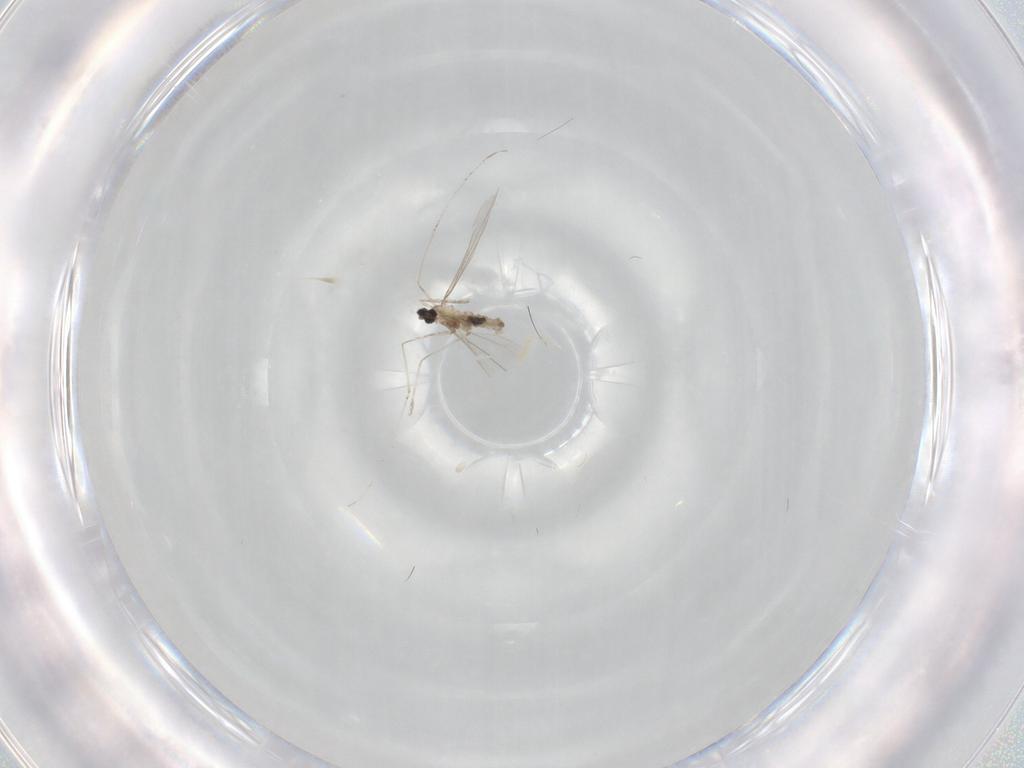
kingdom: Animalia
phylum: Arthropoda
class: Insecta
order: Diptera
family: Cecidomyiidae
